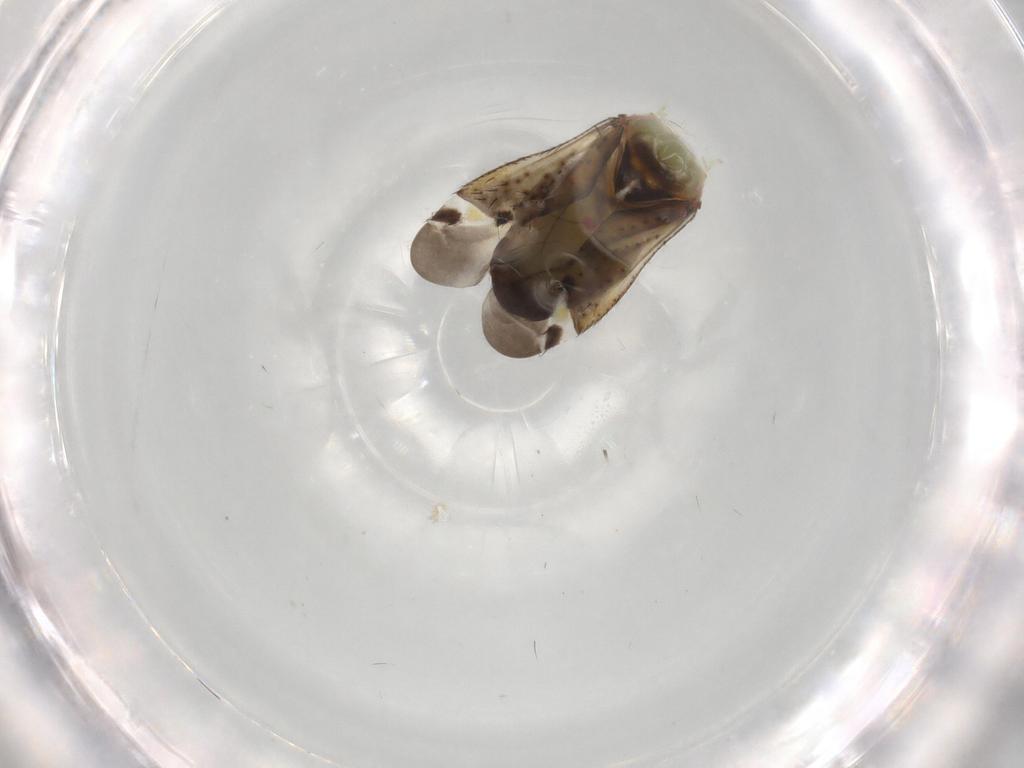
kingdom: Animalia
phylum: Arthropoda
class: Insecta
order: Hemiptera
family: Miridae
